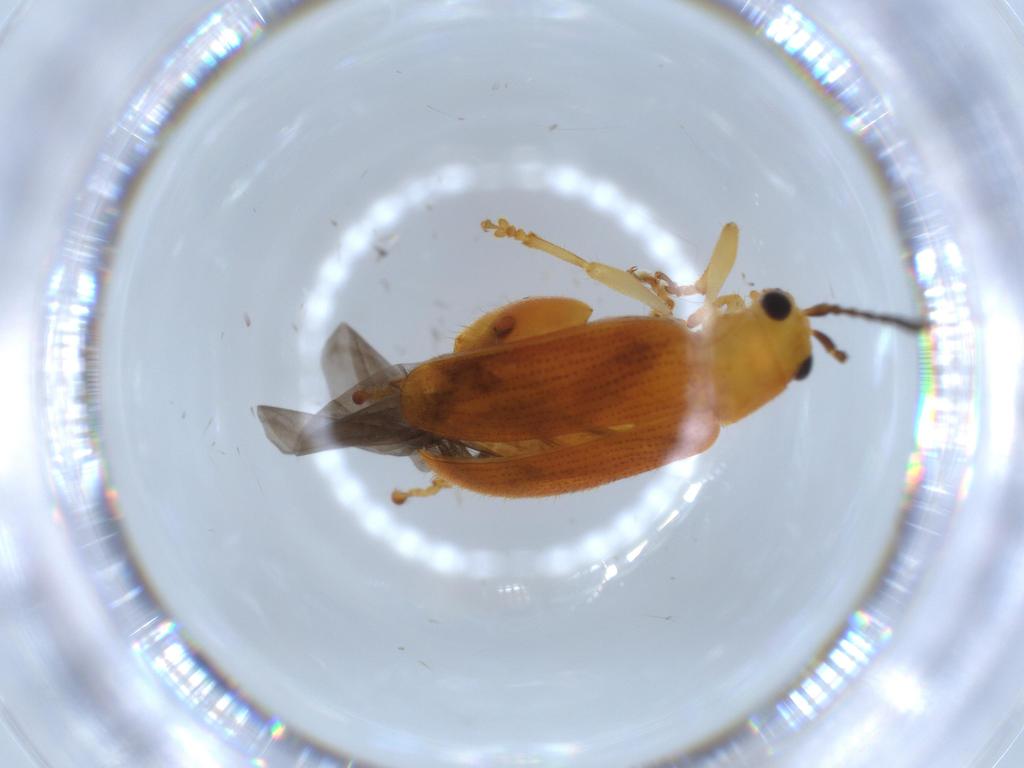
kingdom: Animalia
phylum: Arthropoda
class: Insecta
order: Coleoptera
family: Chrysomelidae
